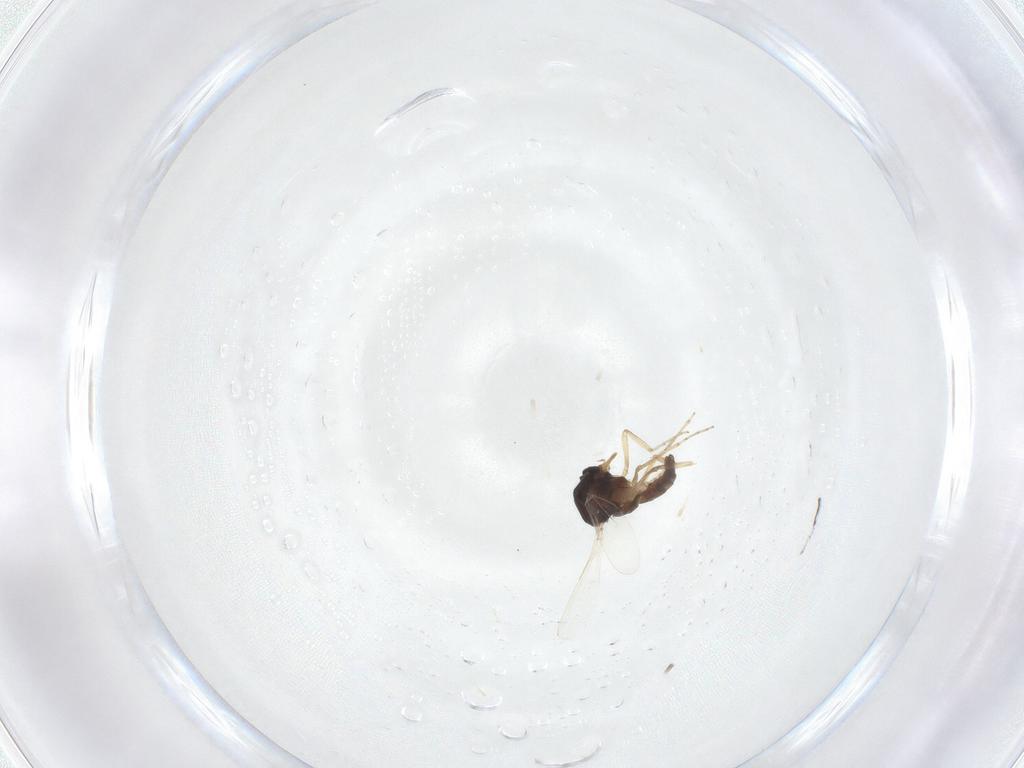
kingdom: Animalia
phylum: Arthropoda
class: Insecta
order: Diptera
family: Ceratopogonidae
